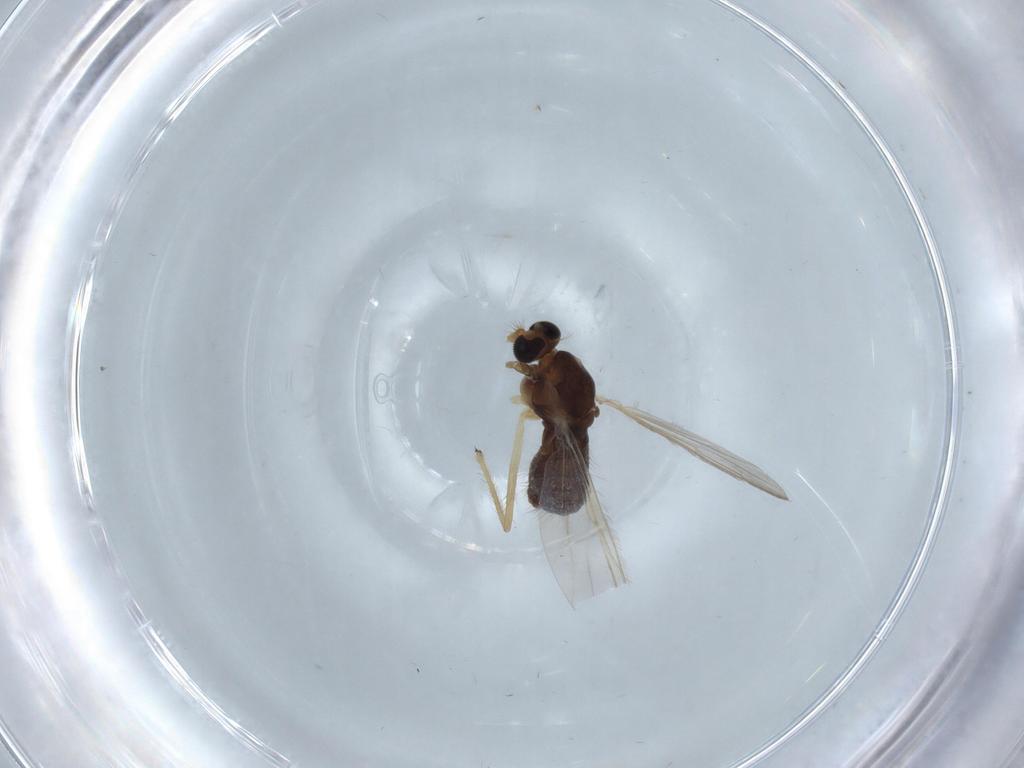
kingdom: Animalia
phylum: Arthropoda
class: Insecta
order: Diptera
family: Chironomidae
